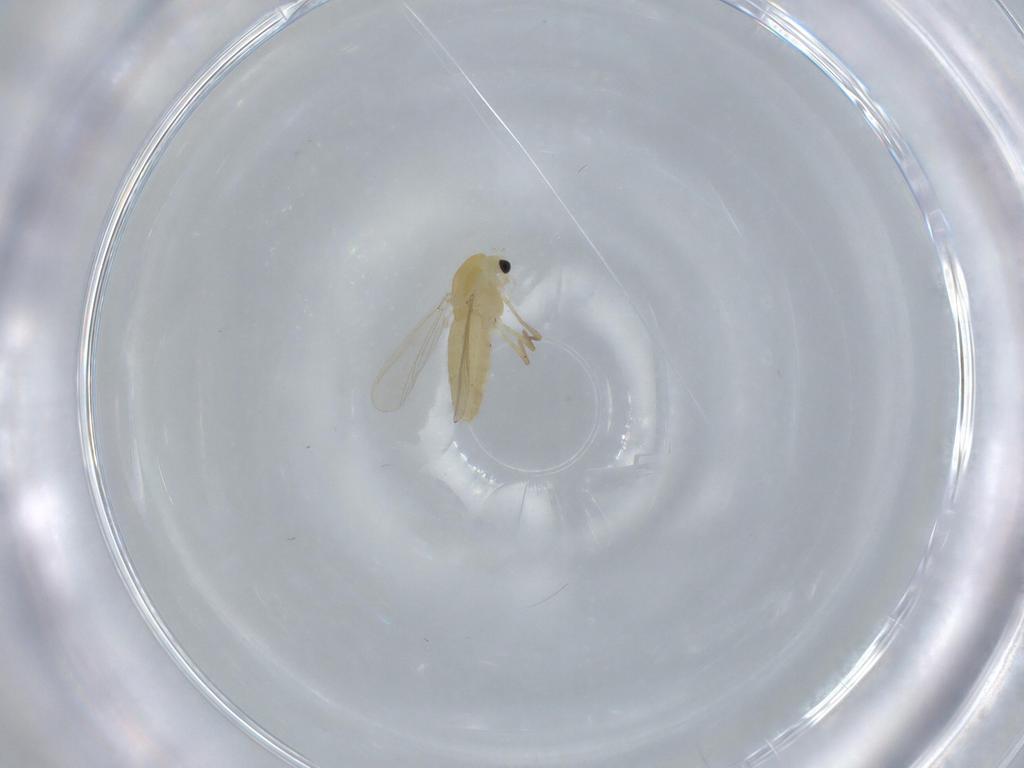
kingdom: Animalia
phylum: Arthropoda
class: Insecta
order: Diptera
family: Chironomidae
